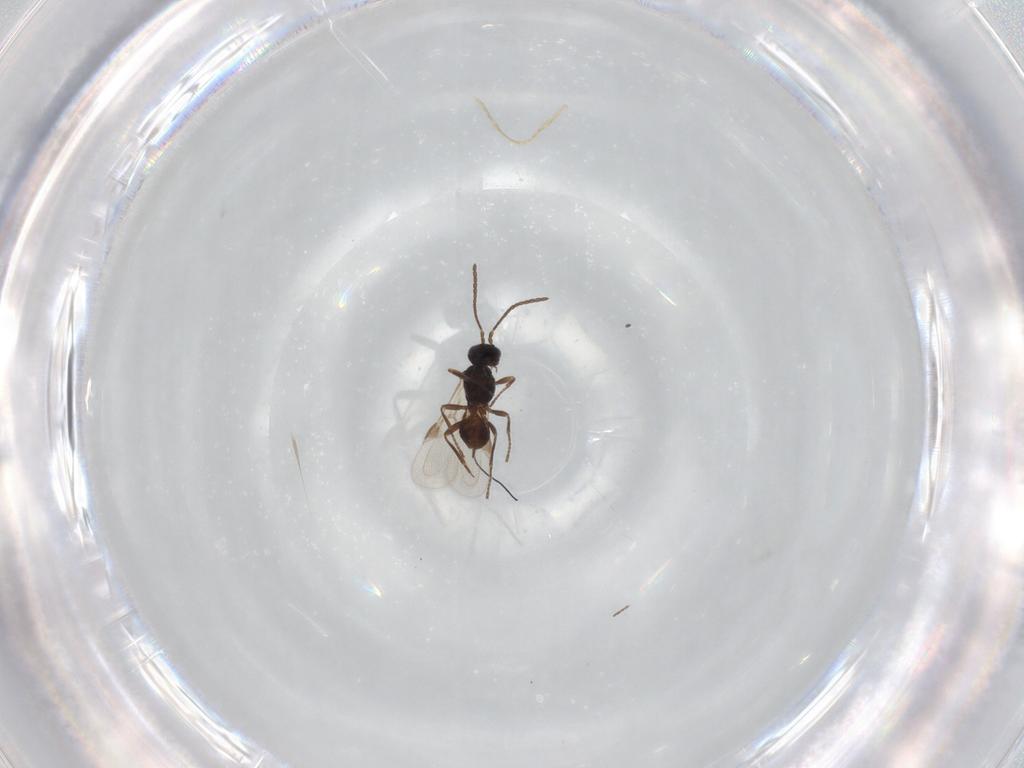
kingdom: Animalia
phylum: Arthropoda
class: Insecta
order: Hymenoptera
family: Braconidae
